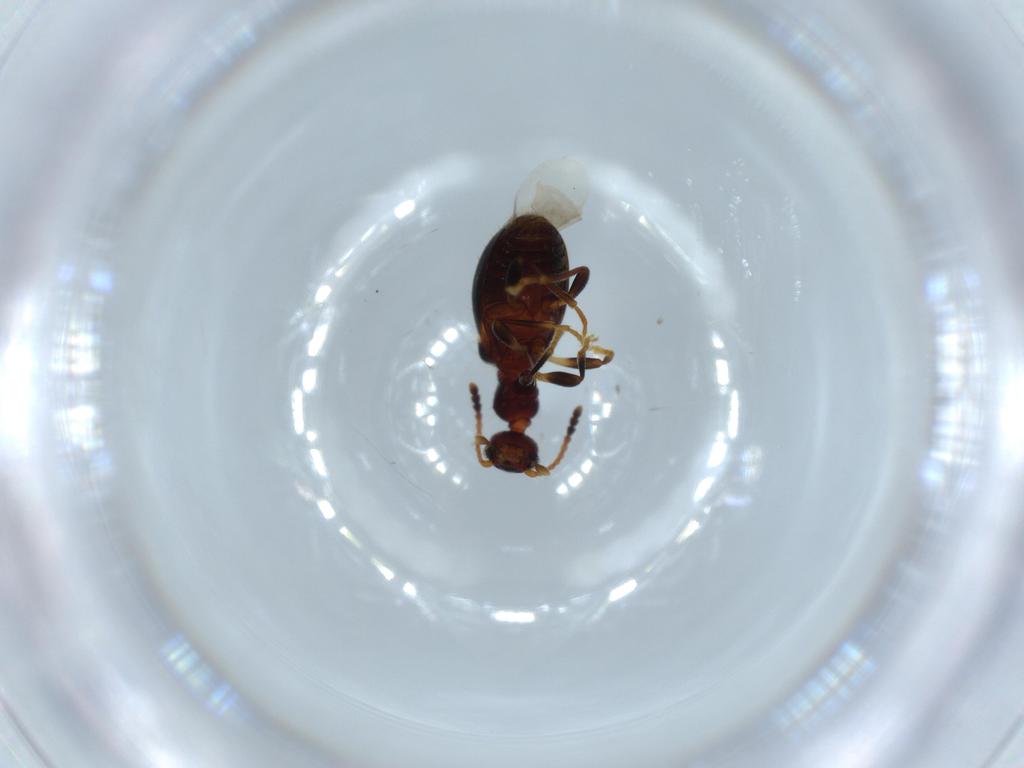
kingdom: Animalia
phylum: Arthropoda
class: Insecta
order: Coleoptera
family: Anthicidae
